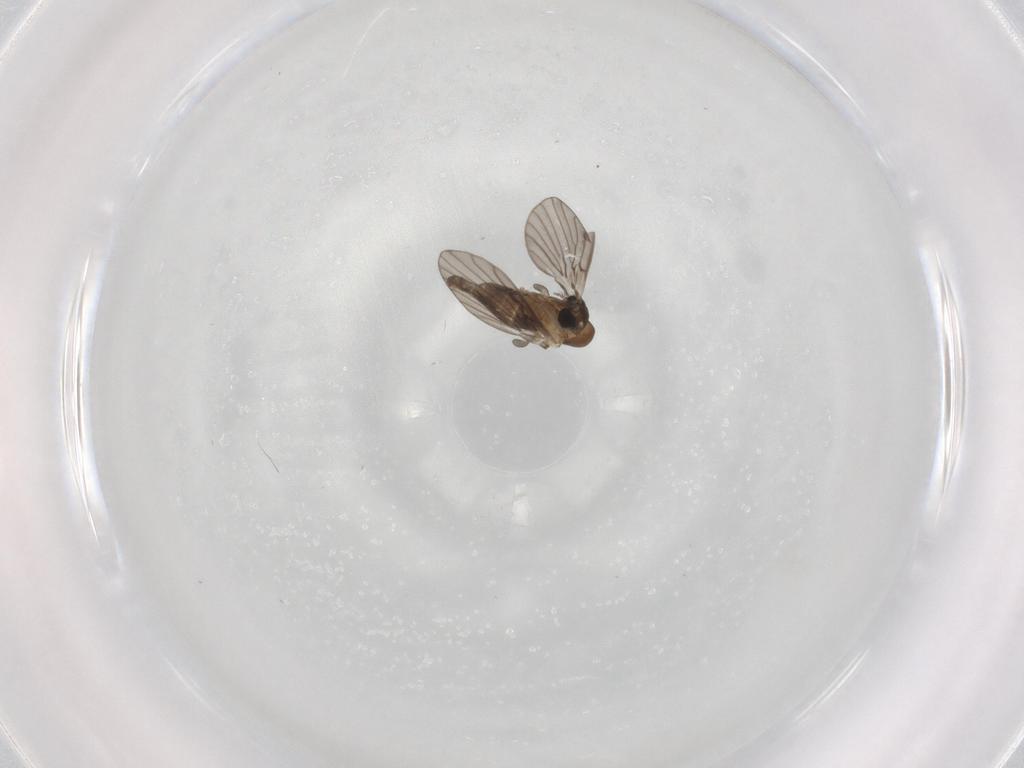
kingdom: Animalia
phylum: Arthropoda
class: Insecta
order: Diptera
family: Psychodidae
